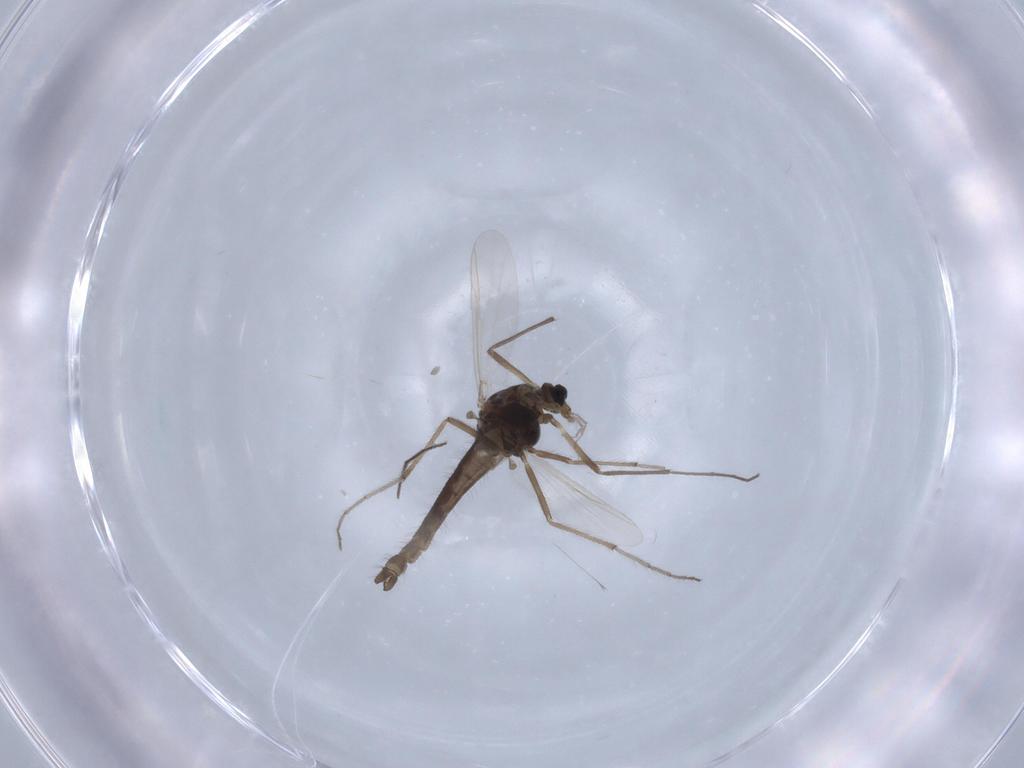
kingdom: Animalia
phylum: Arthropoda
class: Insecta
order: Diptera
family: Chironomidae
